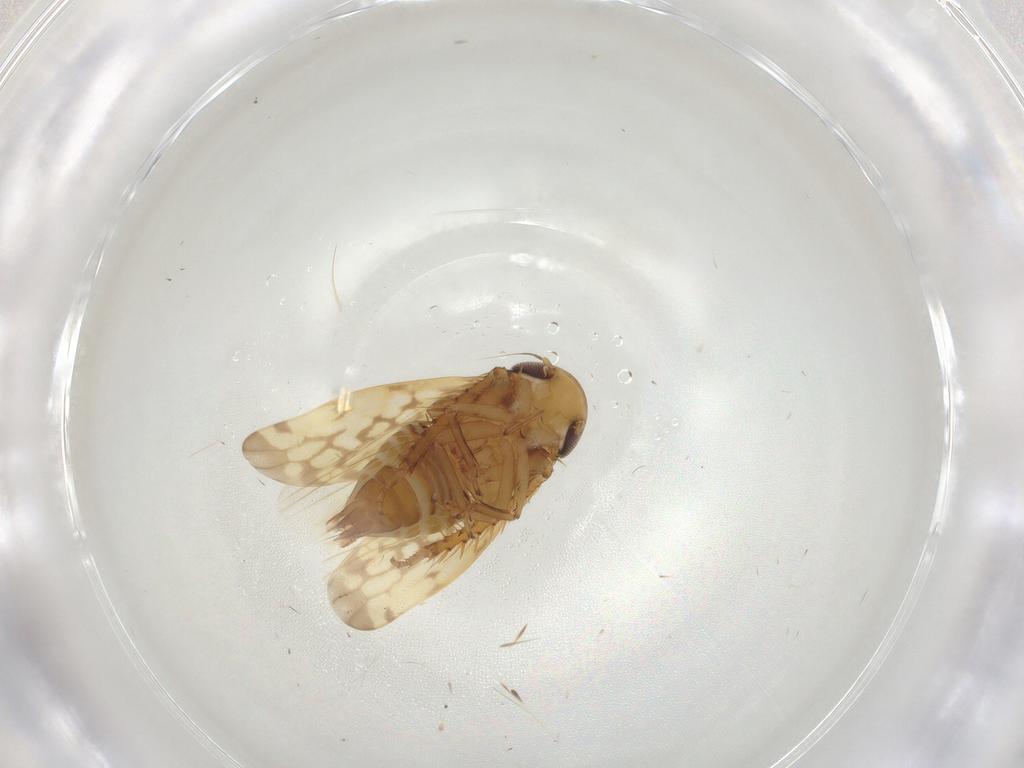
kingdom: Animalia
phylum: Arthropoda
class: Insecta
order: Hemiptera
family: Cicadellidae
